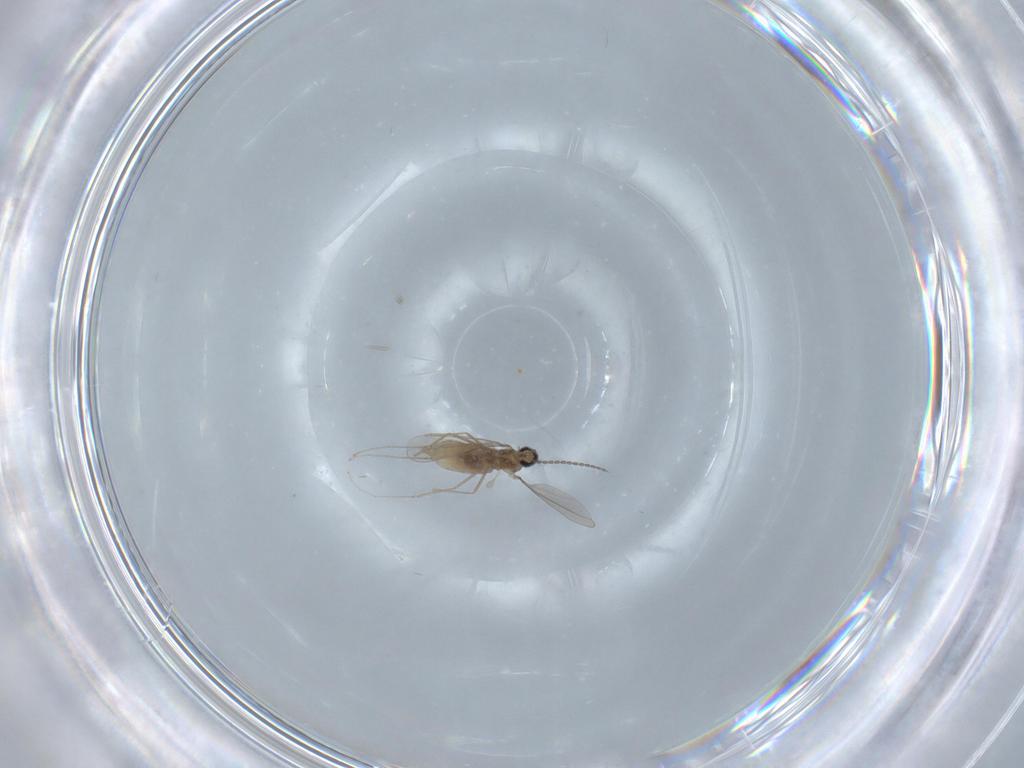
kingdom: Animalia
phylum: Arthropoda
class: Insecta
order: Diptera
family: Cecidomyiidae
